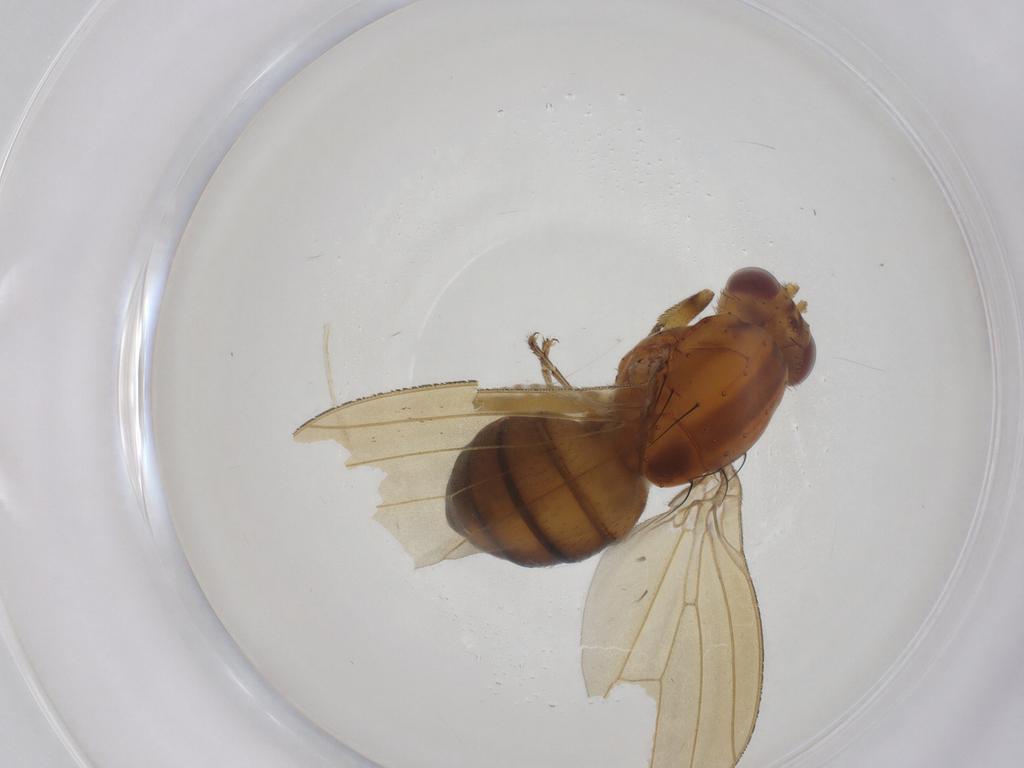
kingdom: Animalia
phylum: Arthropoda
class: Insecta
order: Diptera
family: Lauxaniidae
